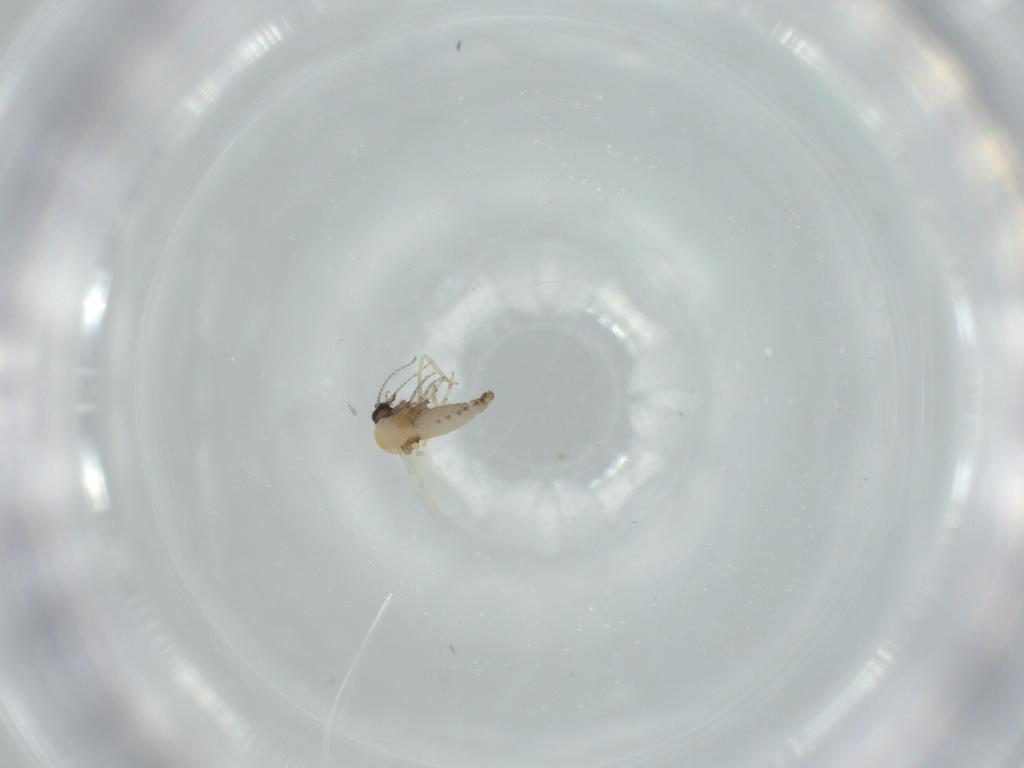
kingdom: Animalia
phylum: Arthropoda
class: Insecta
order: Diptera
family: Ceratopogonidae
